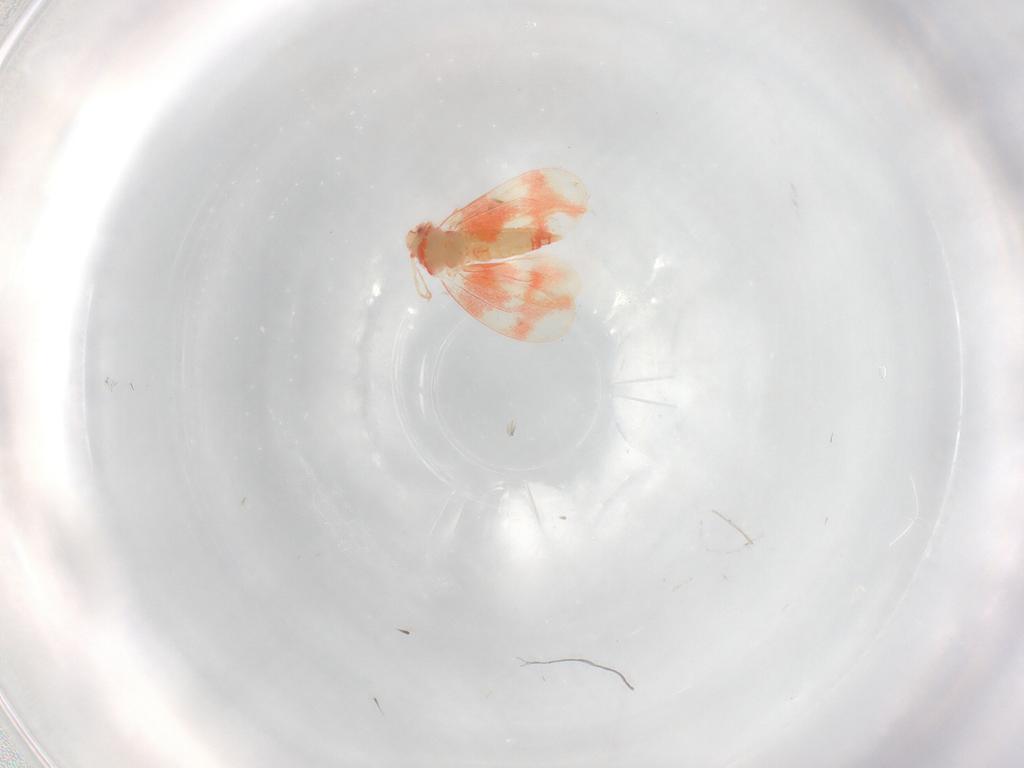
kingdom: Animalia
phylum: Arthropoda
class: Insecta
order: Hemiptera
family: Aleyrodidae
